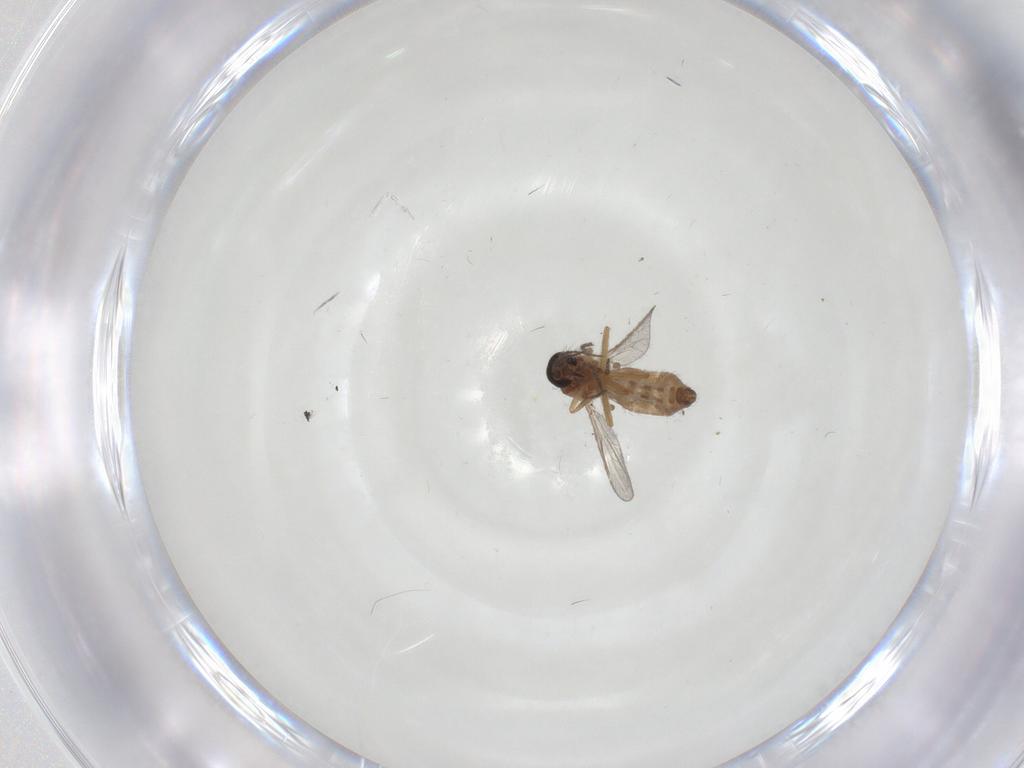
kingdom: Animalia
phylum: Arthropoda
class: Insecta
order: Diptera
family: Ceratopogonidae
